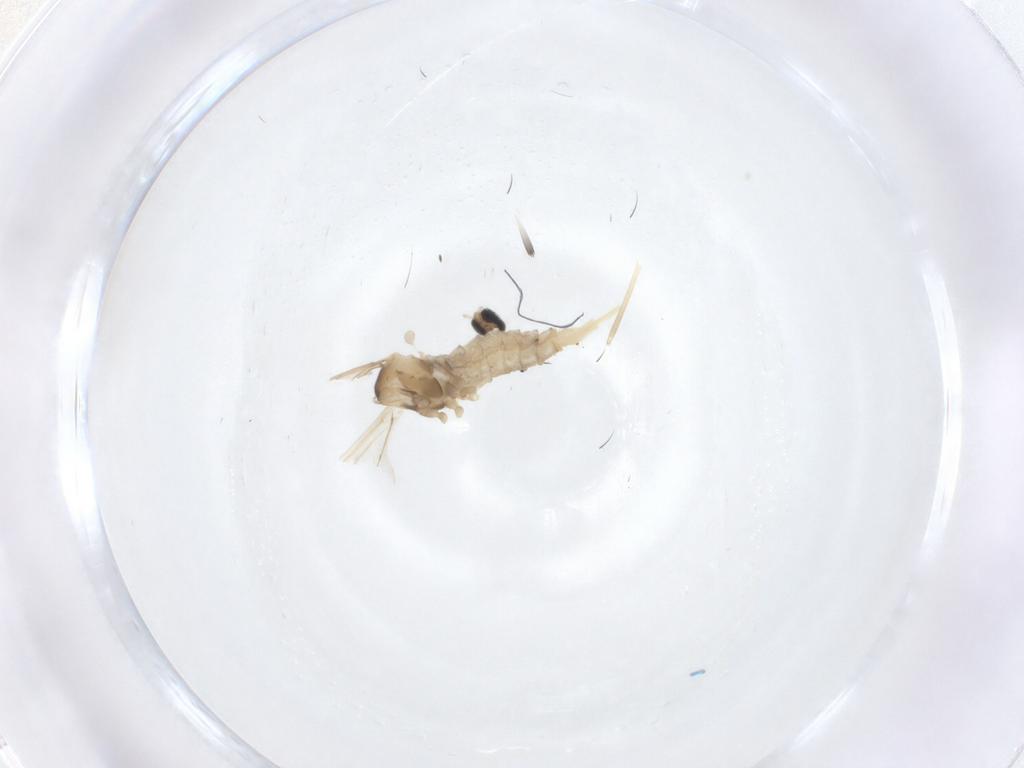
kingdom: Animalia
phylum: Arthropoda
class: Insecta
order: Diptera
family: Cecidomyiidae
